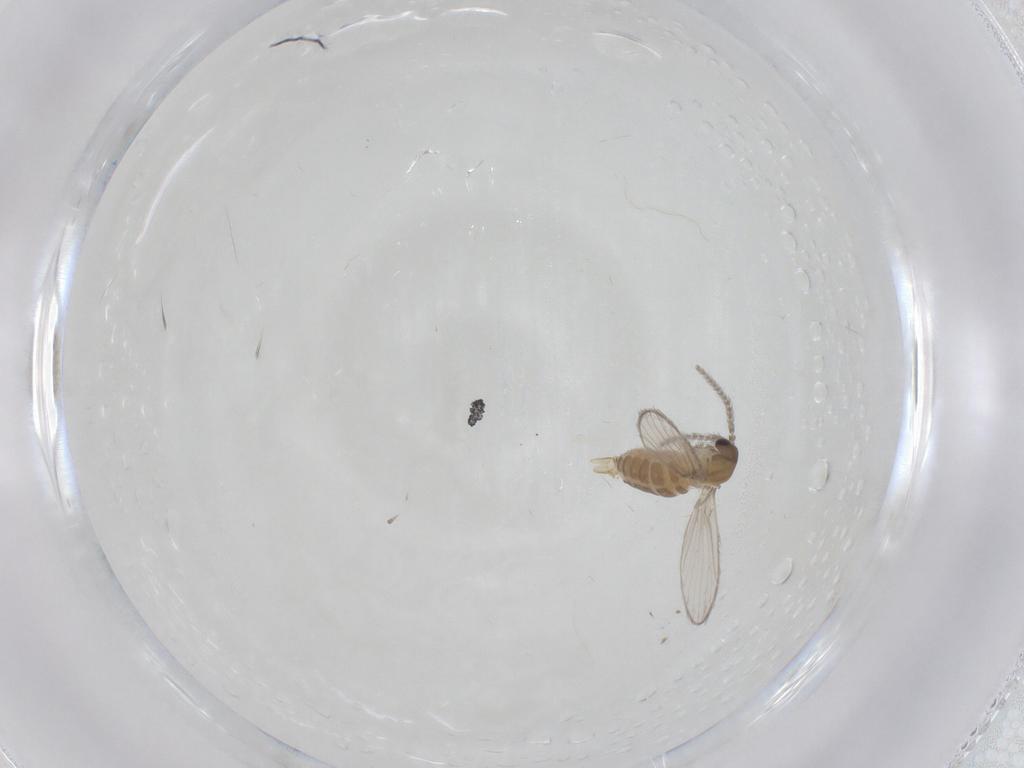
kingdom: Animalia
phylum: Arthropoda
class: Insecta
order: Diptera
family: Psychodidae
